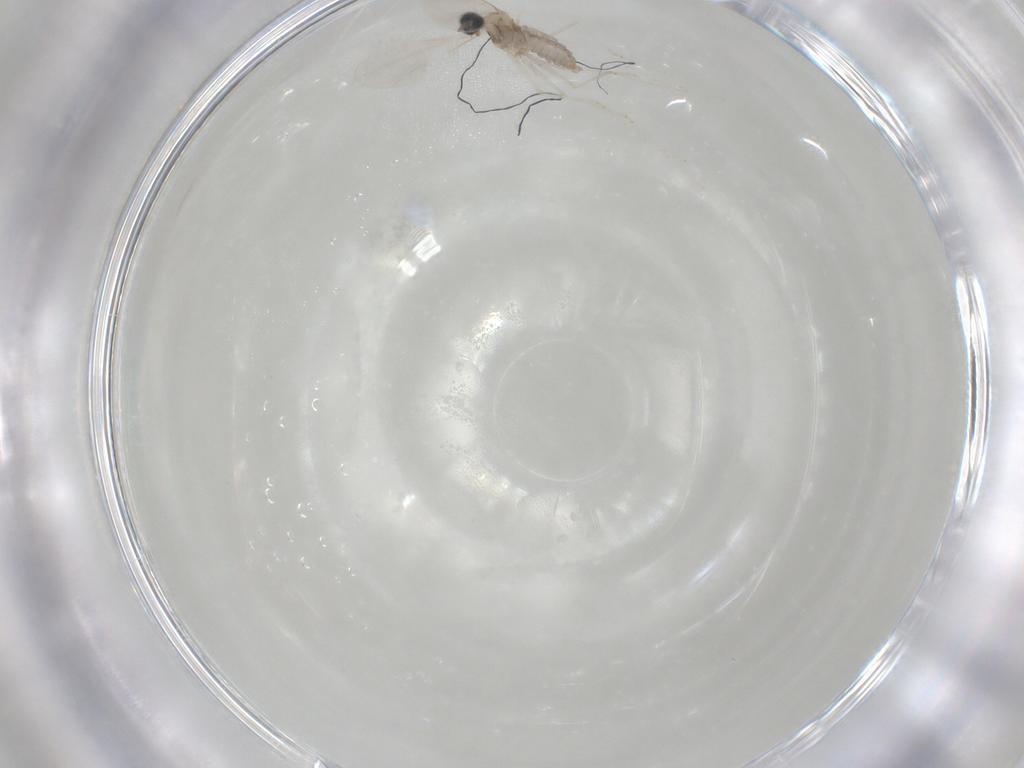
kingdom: Animalia
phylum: Arthropoda
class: Insecta
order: Diptera
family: Cecidomyiidae
